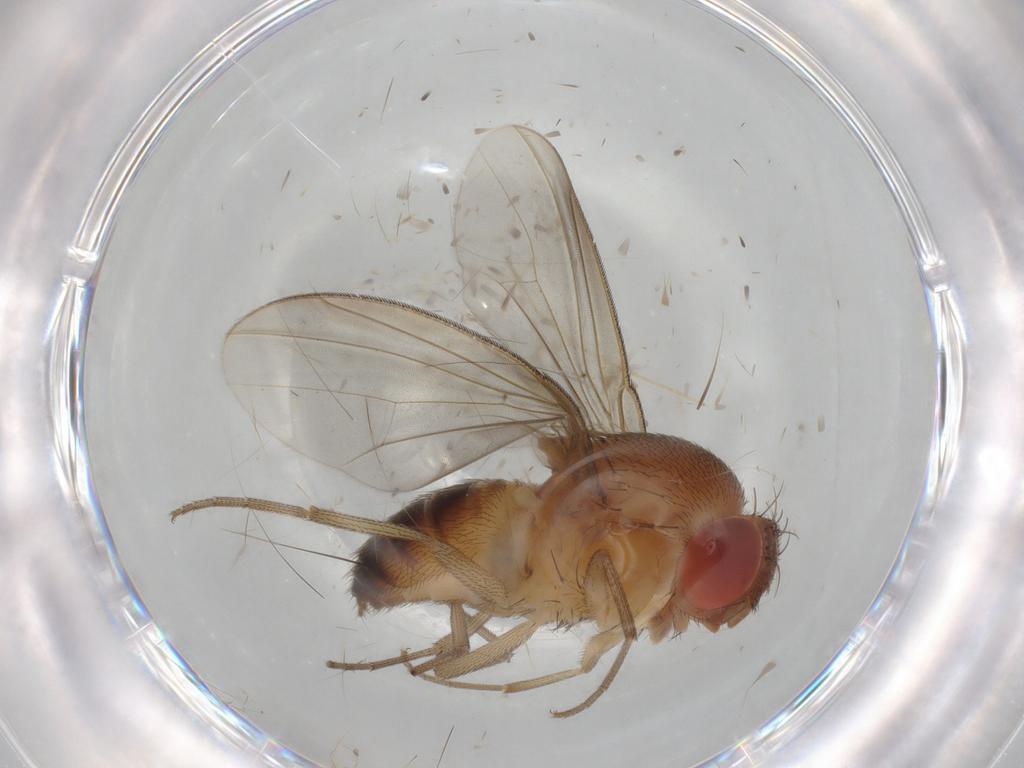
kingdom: Animalia
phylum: Arthropoda
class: Insecta
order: Diptera
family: Drosophilidae
